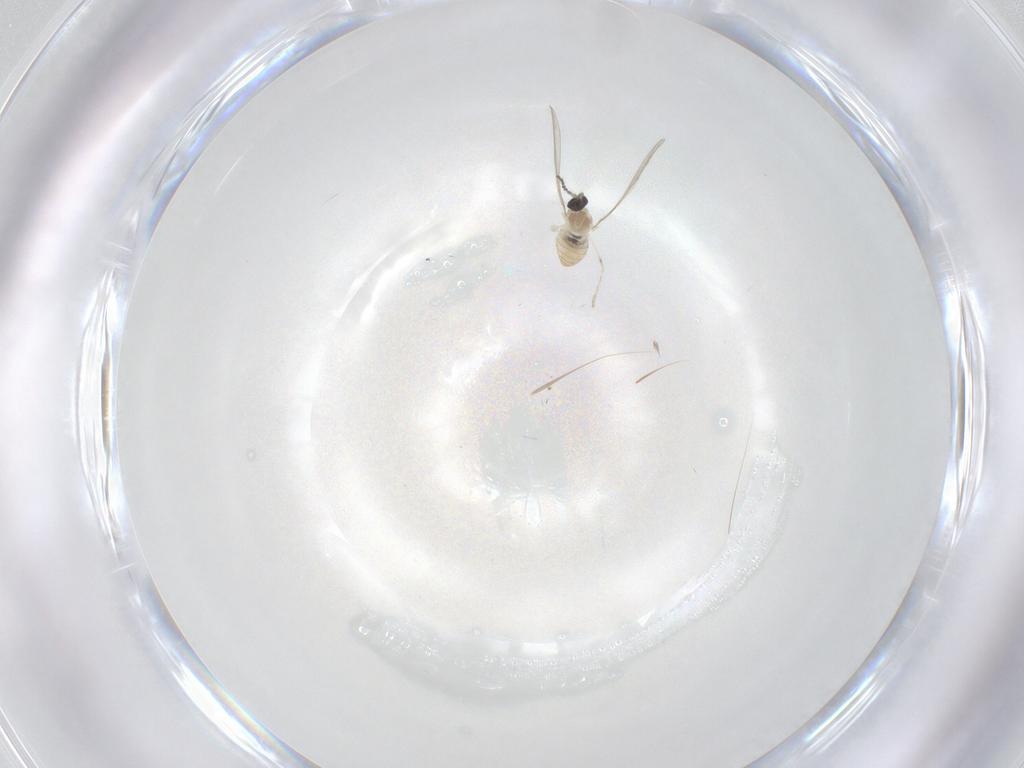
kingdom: Animalia
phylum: Arthropoda
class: Insecta
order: Diptera
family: Cecidomyiidae
